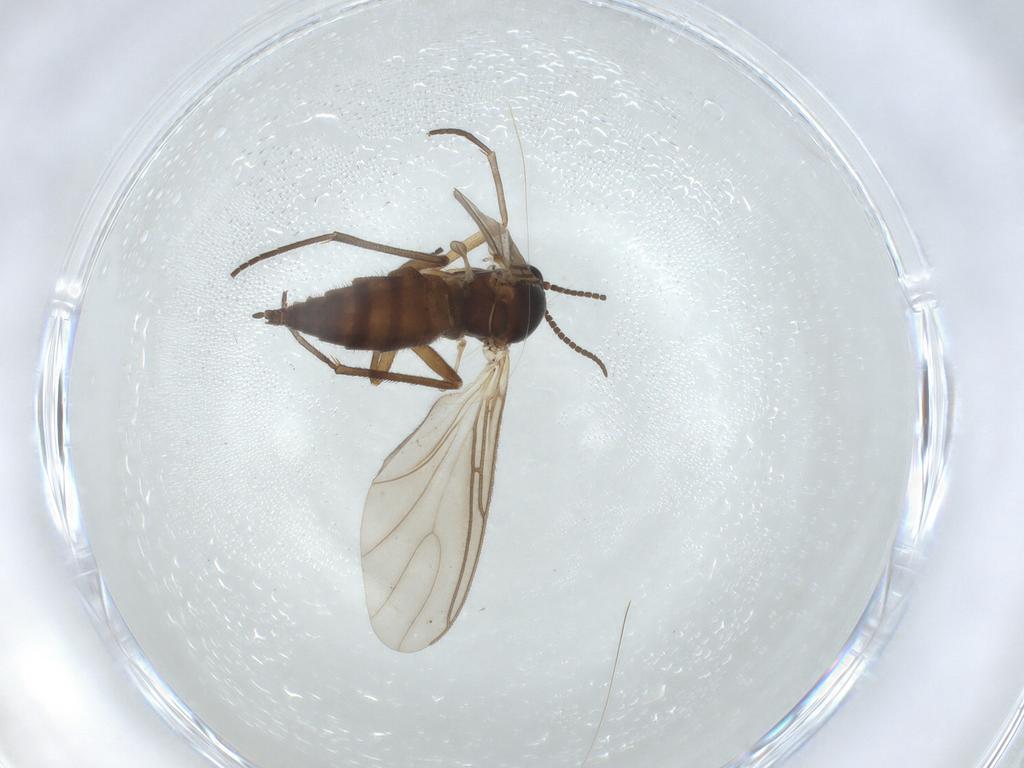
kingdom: Animalia
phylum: Arthropoda
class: Insecta
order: Diptera
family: Sciaridae
